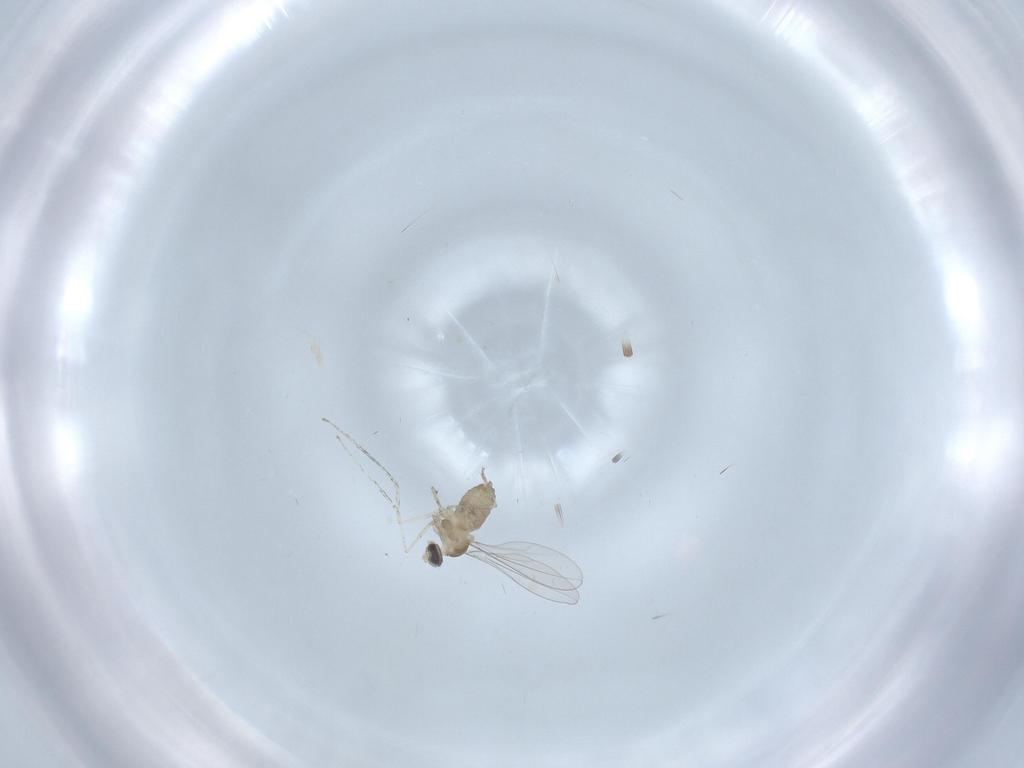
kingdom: Animalia
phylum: Arthropoda
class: Insecta
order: Diptera
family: Cecidomyiidae
